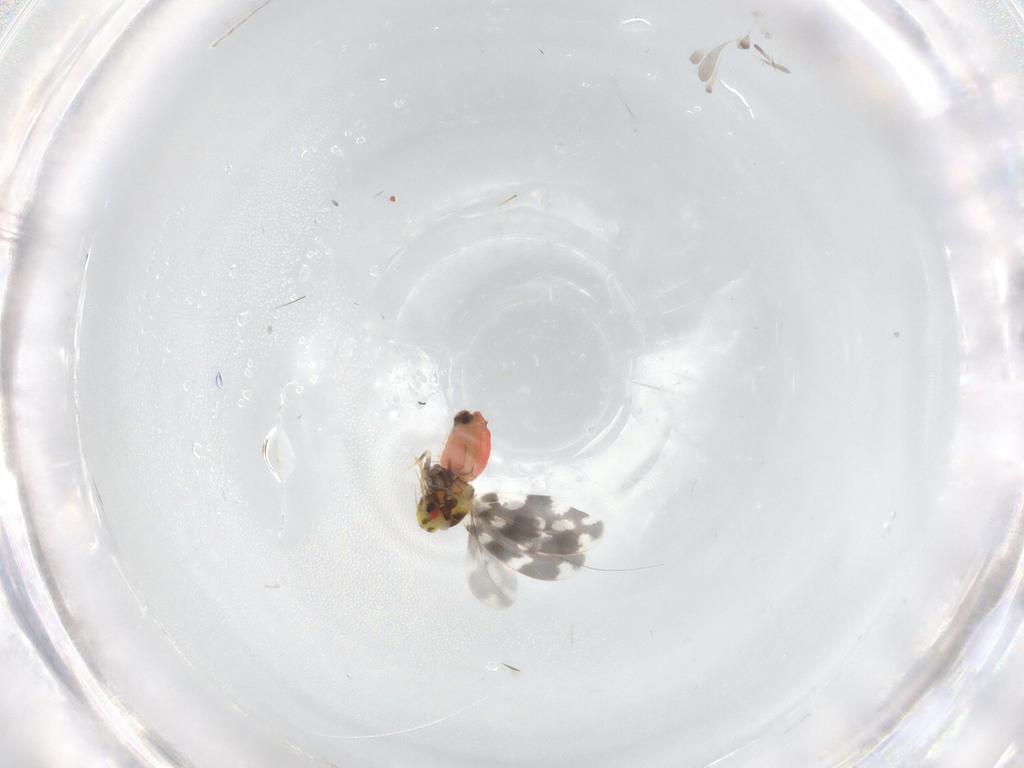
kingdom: Animalia
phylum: Arthropoda
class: Insecta
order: Hemiptera
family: Aleyrodidae
